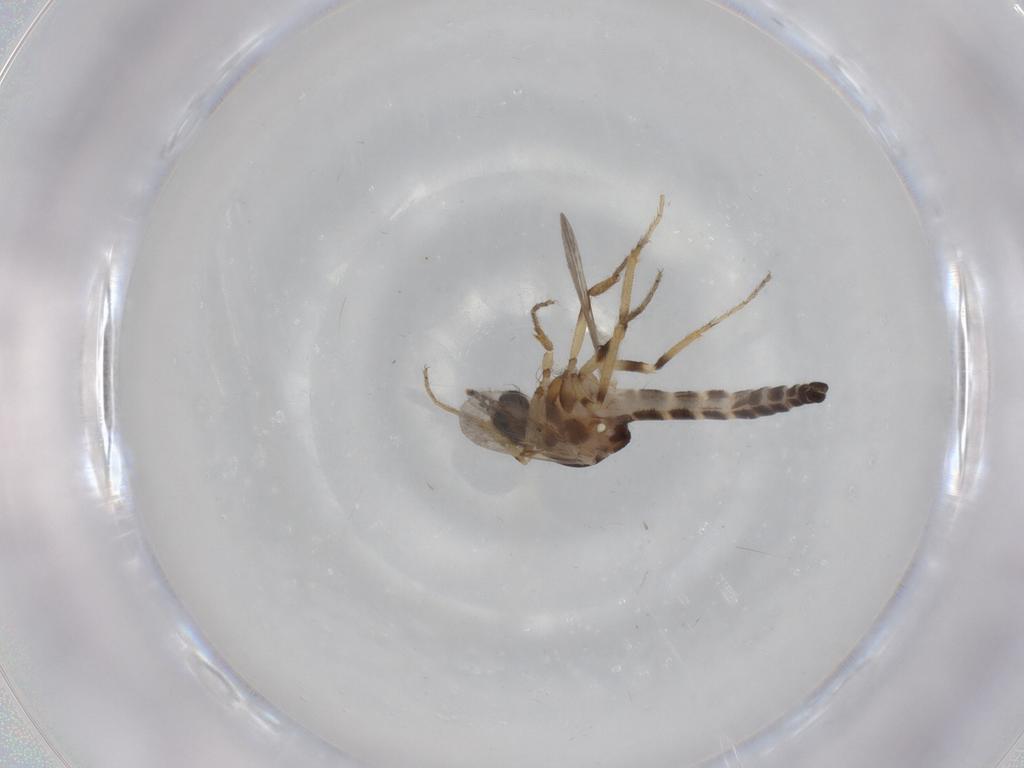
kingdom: Animalia
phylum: Arthropoda
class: Insecta
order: Diptera
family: Ceratopogonidae
